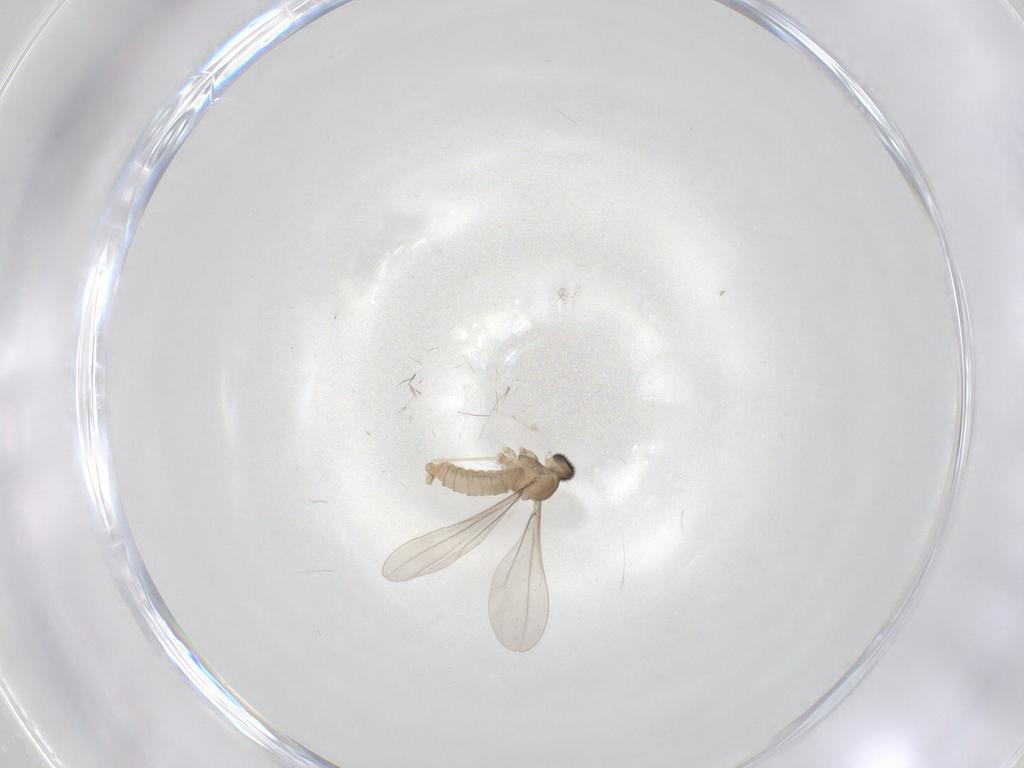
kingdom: Animalia
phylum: Arthropoda
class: Insecta
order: Diptera
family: Cecidomyiidae
